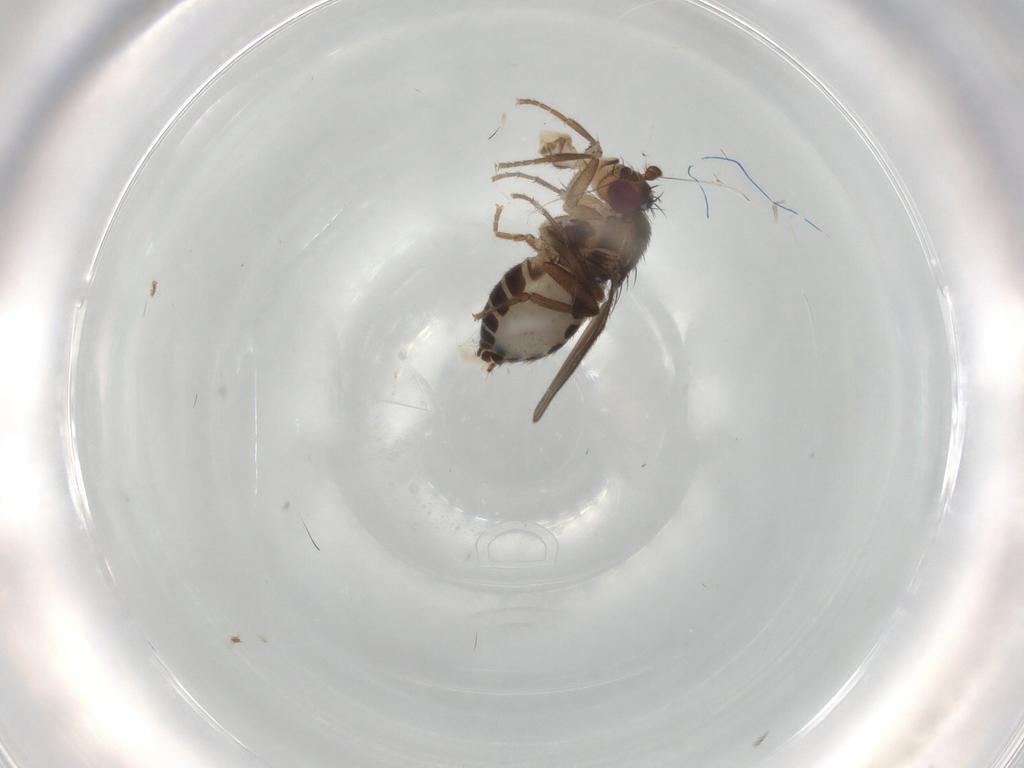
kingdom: Animalia
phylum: Arthropoda
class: Insecta
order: Diptera
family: Sphaeroceridae
